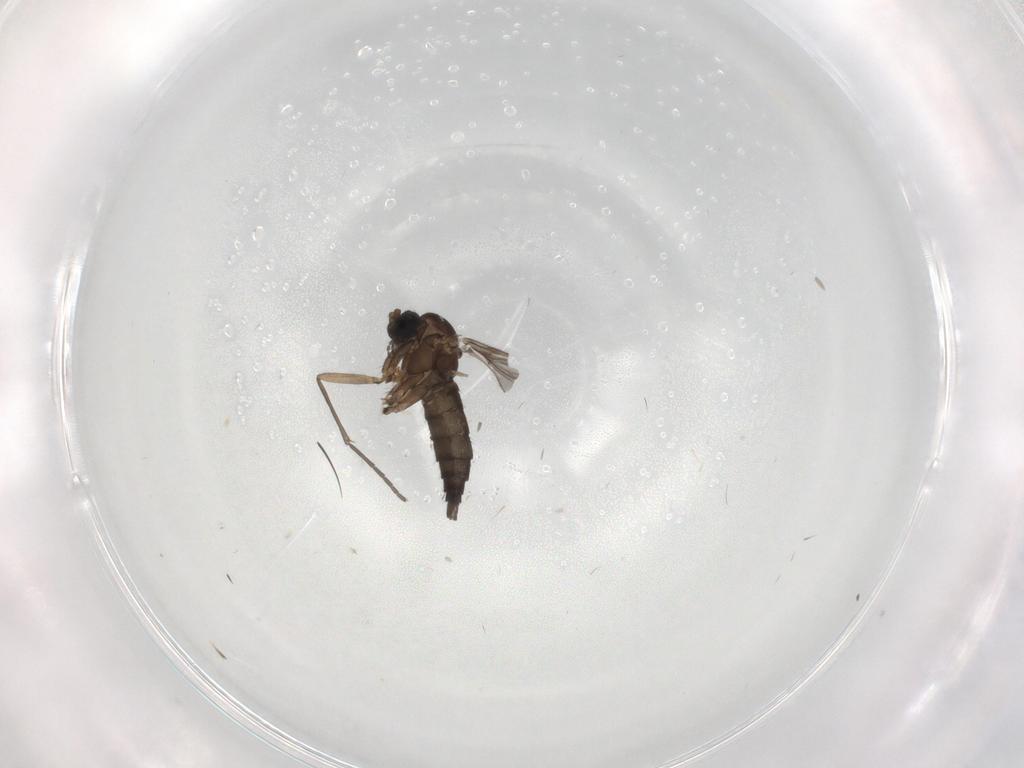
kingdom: Animalia
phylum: Arthropoda
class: Insecta
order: Diptera
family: Sciaridae
